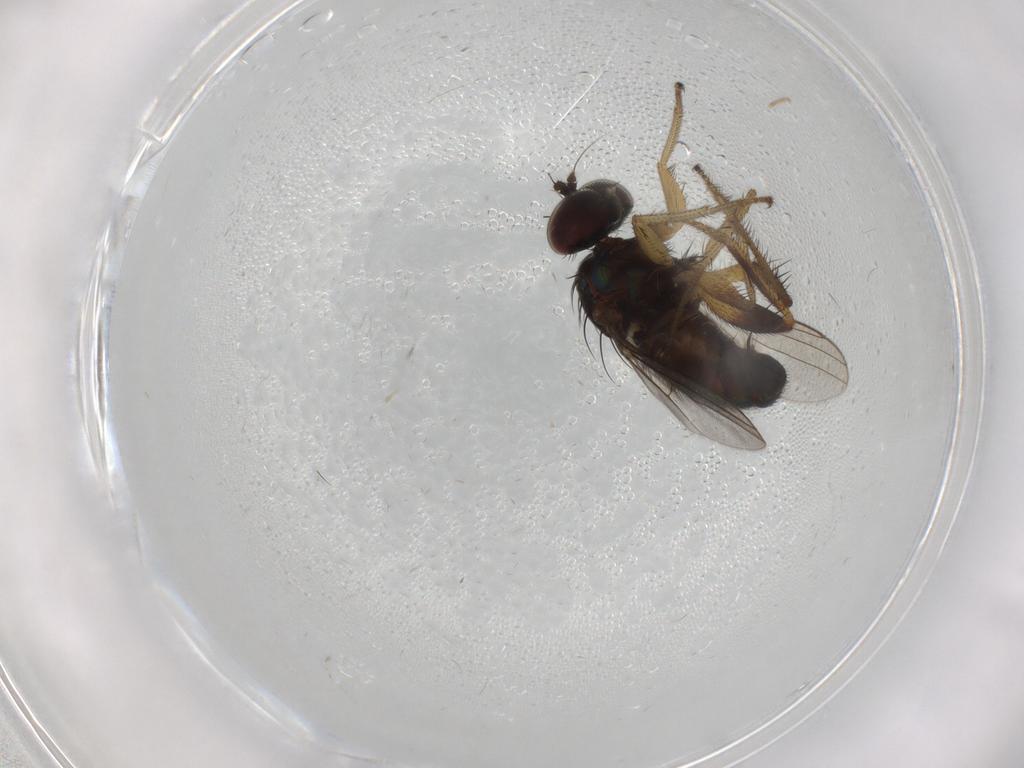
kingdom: Animalia
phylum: Arthropoda
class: Insecta
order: Diptera
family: Dolichopodidae
